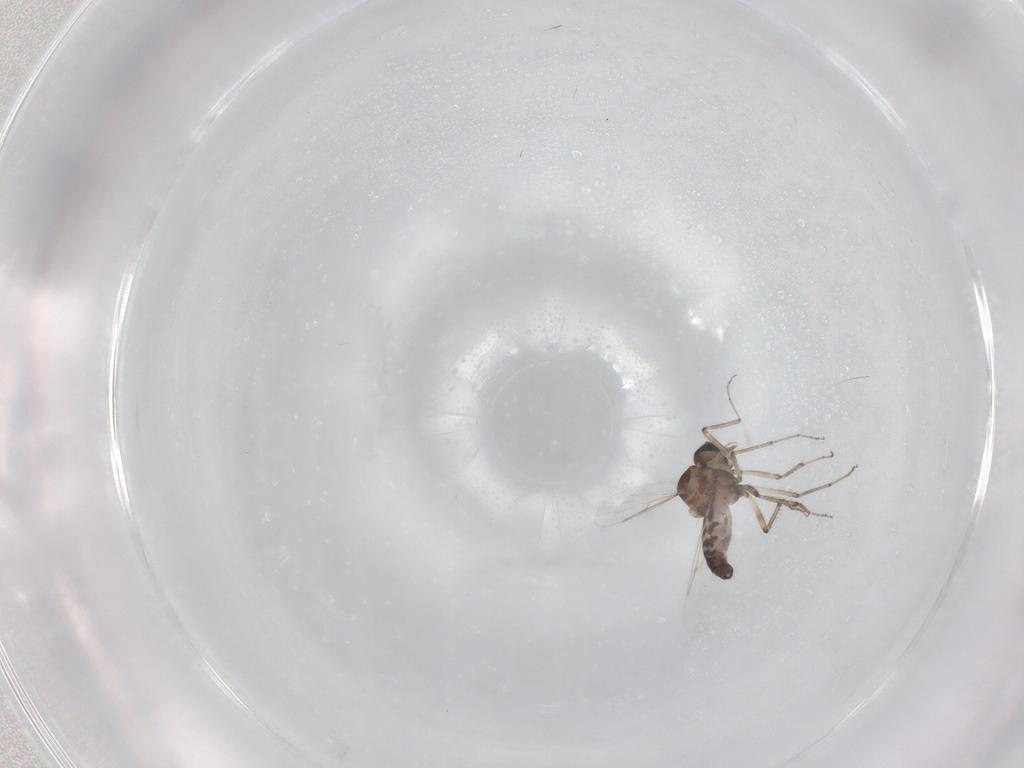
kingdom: Animalia
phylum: Arthropoda
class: Insecta
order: Diptera
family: Ceratopogonidae
